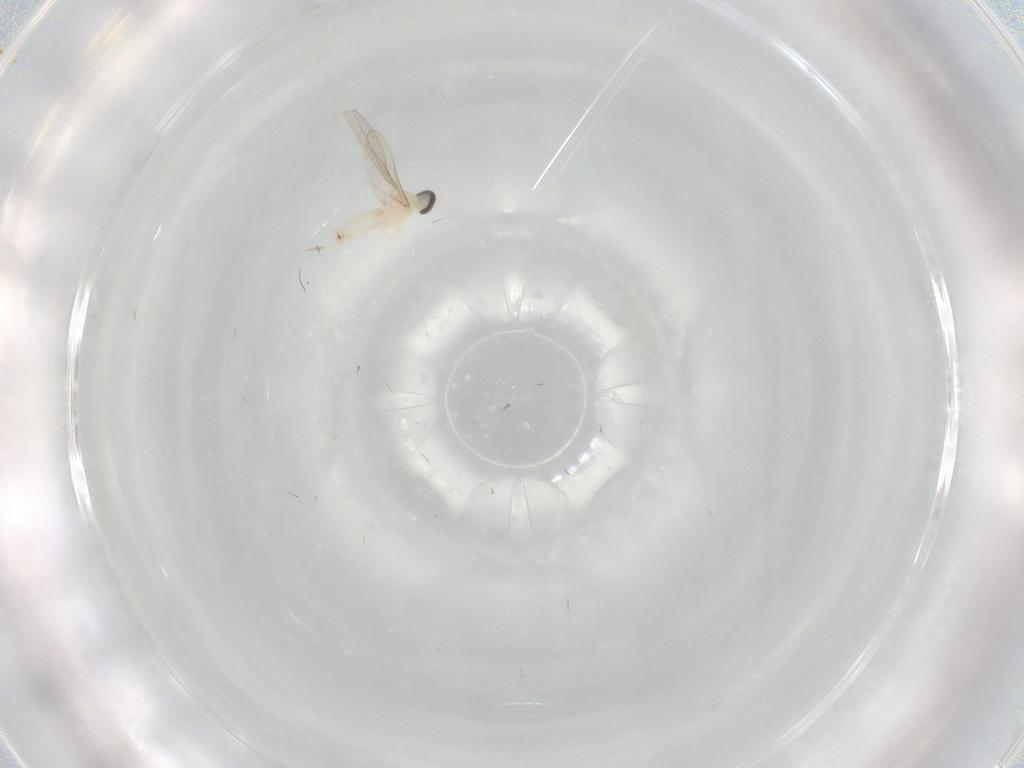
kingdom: Animalia
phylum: Arthropoda
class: Insecta
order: Diptera
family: Cecidomyiidae
